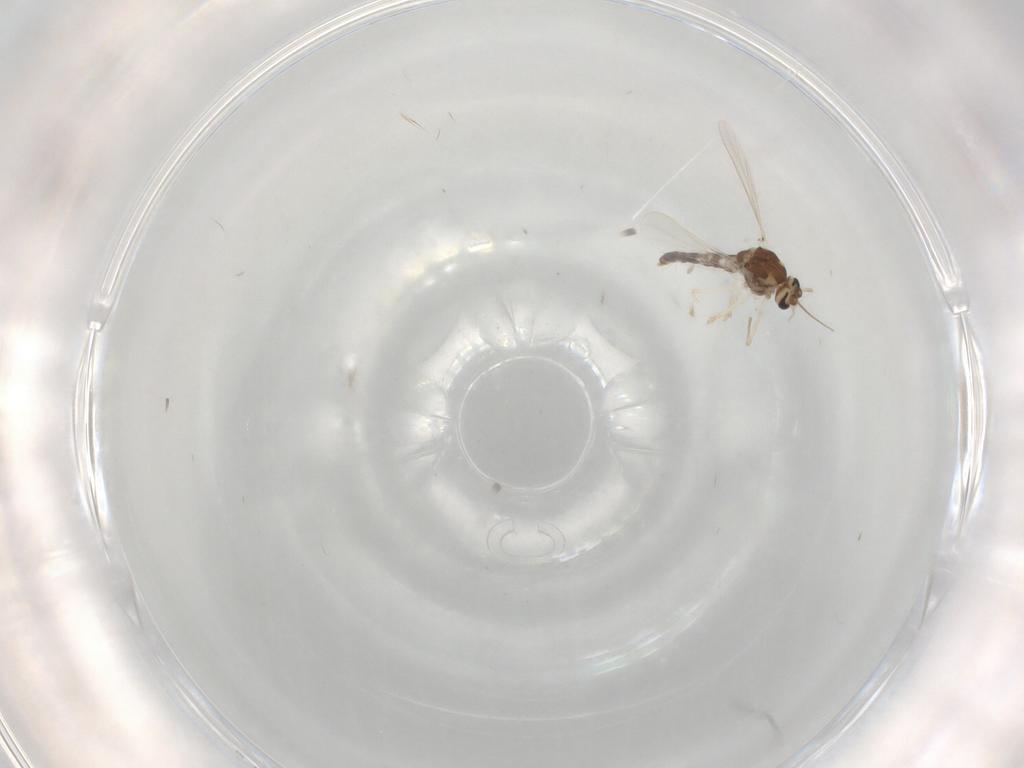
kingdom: Animalia
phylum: Arthropoda
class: Insecta
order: Diptera
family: Chironomidae
